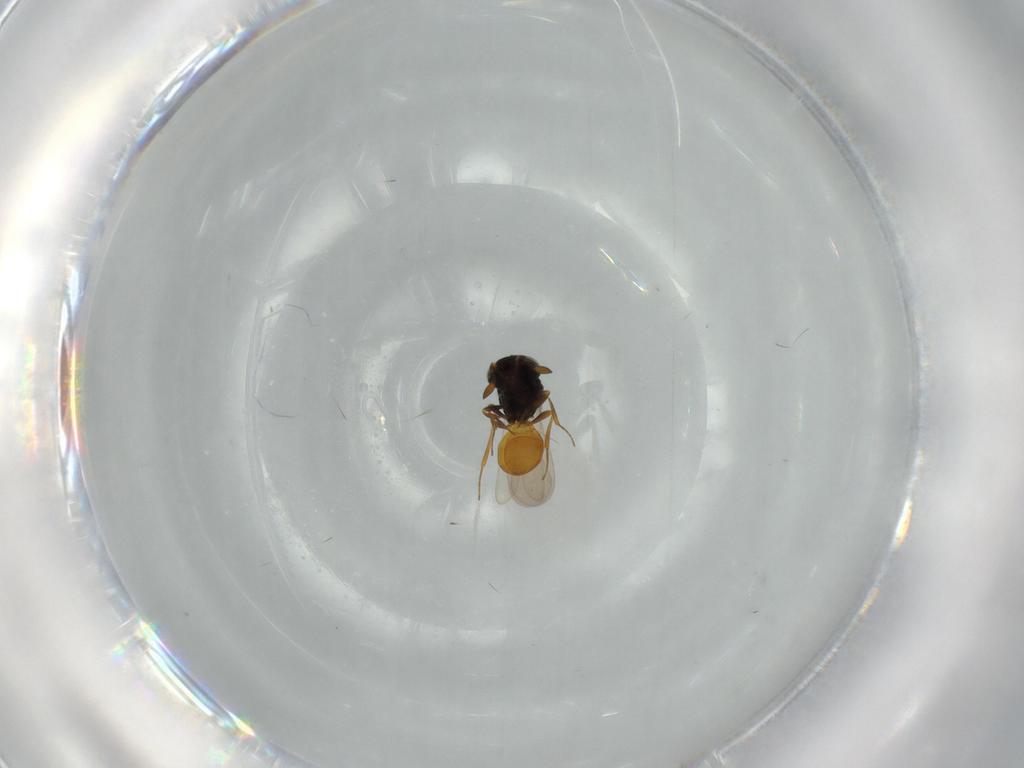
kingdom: Animalia
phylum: Arthropoda
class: Insecta
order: Hymenoptera
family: Scelionidae
